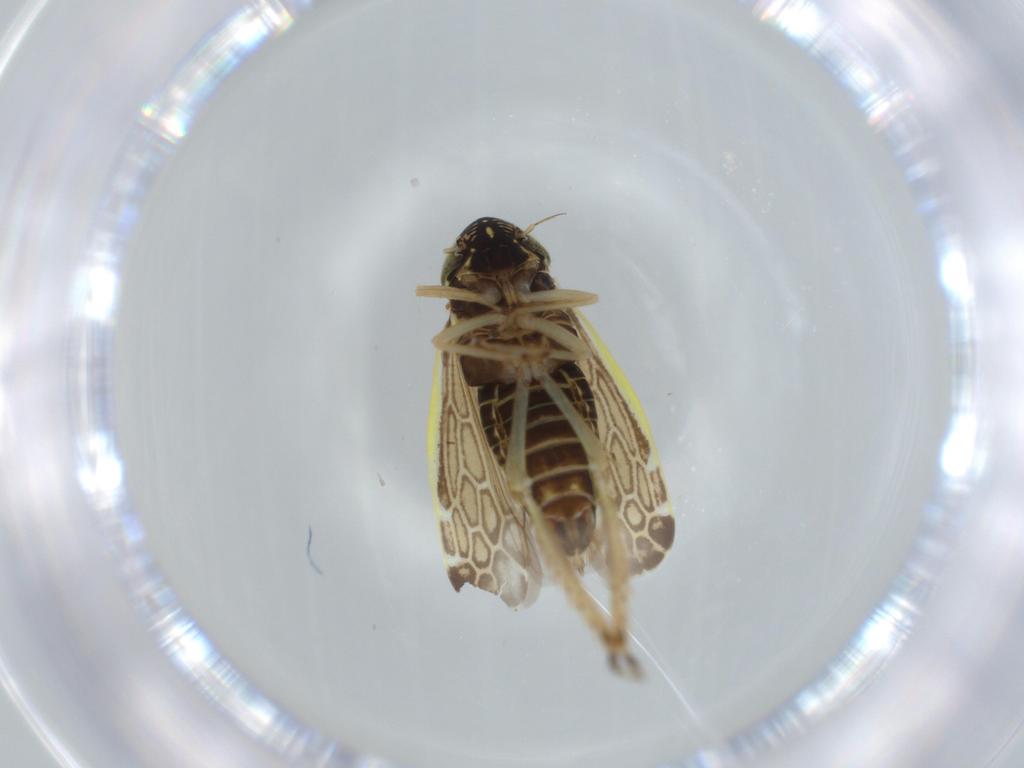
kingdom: Animalia
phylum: Arthropoda
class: Insecta
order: Hemiptera
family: Cicadellidae
